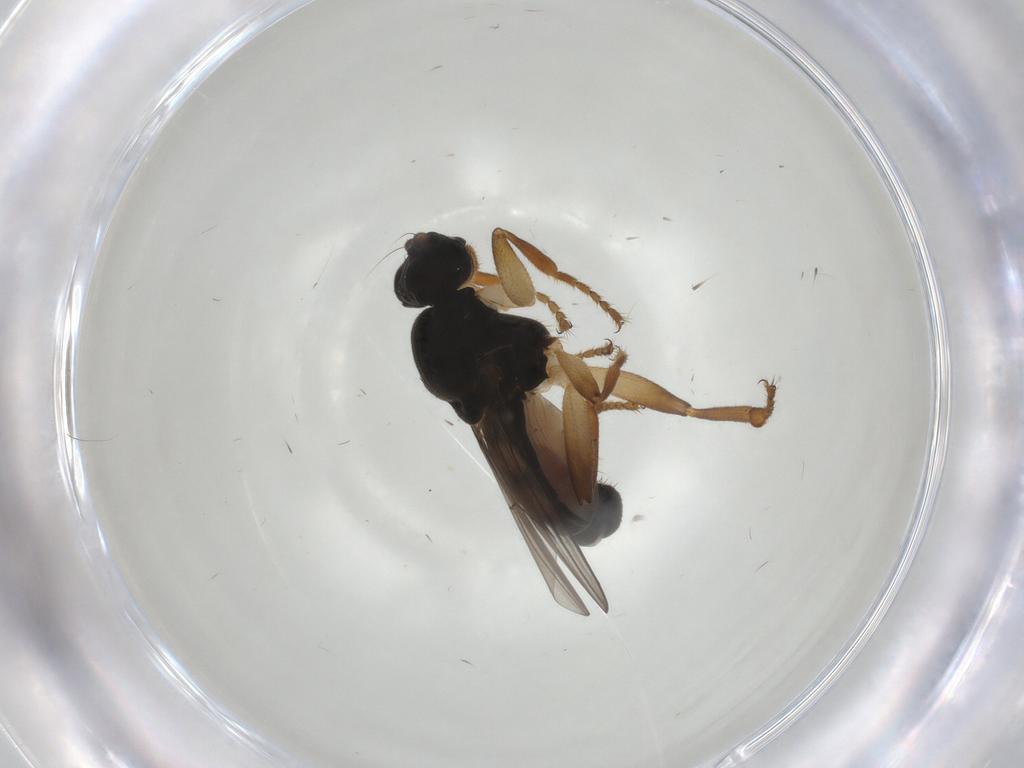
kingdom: Animalia
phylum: Arthropoda
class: Insecta
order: Diptera
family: Sphaeroceridae
